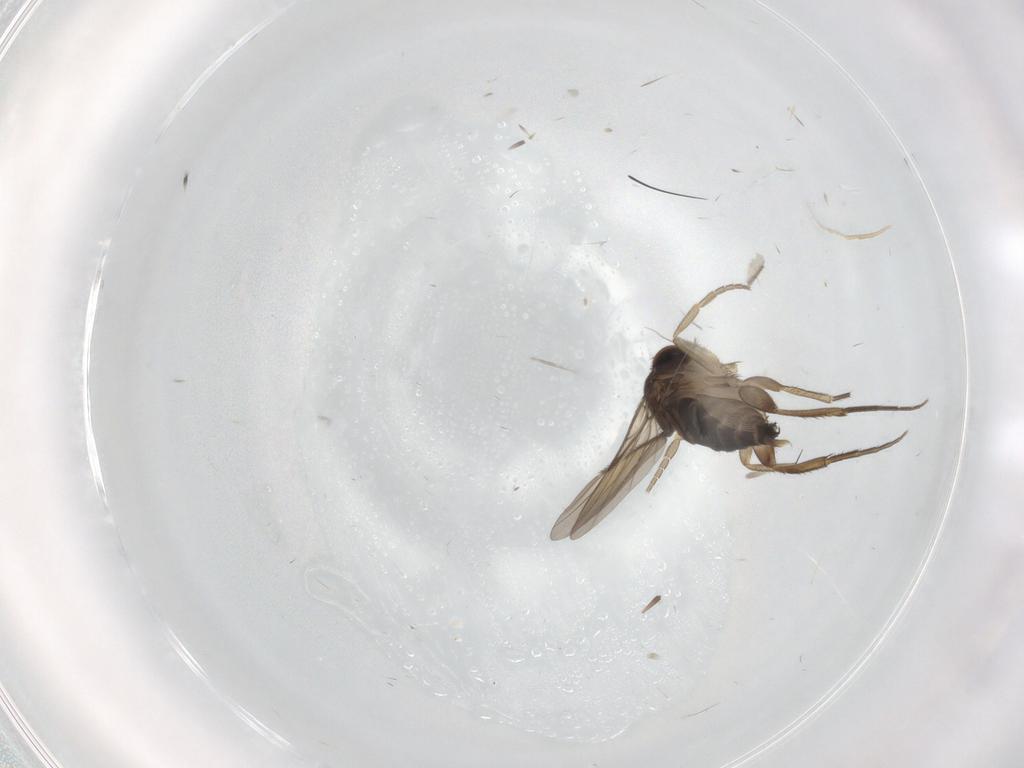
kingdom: Animalia
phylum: Arthropoda
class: Insecta
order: Diptera
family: Phoridae
